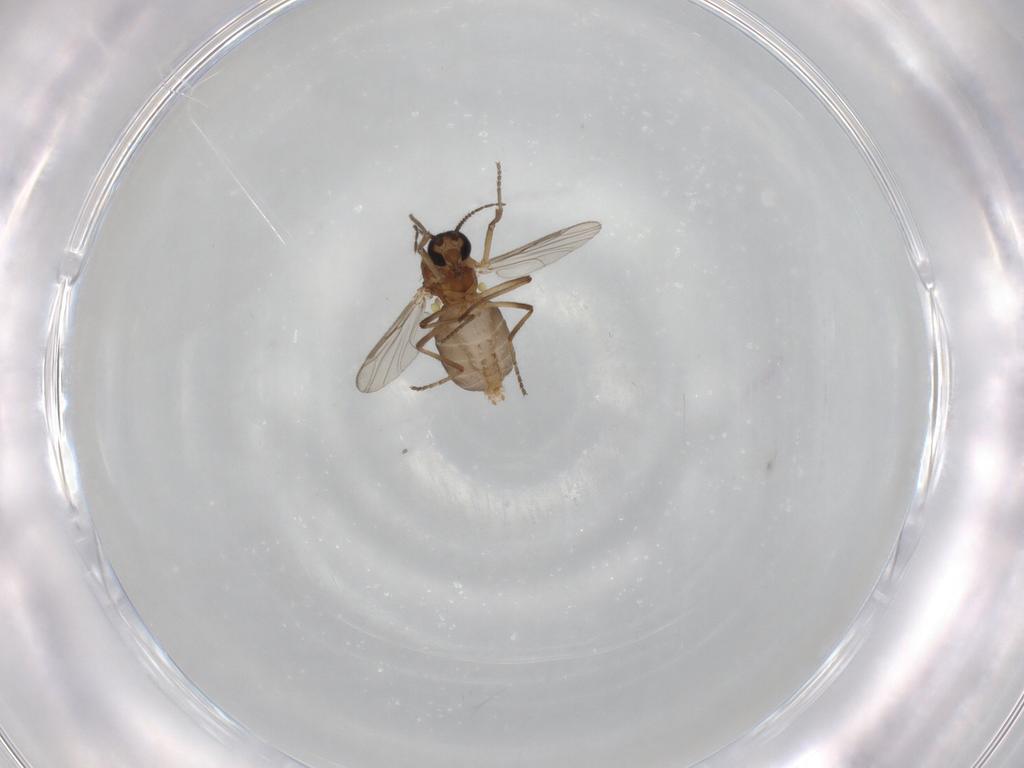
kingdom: Animalia
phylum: Arthropoda
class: Insecta
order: Diptera
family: Ceratopogonidae
